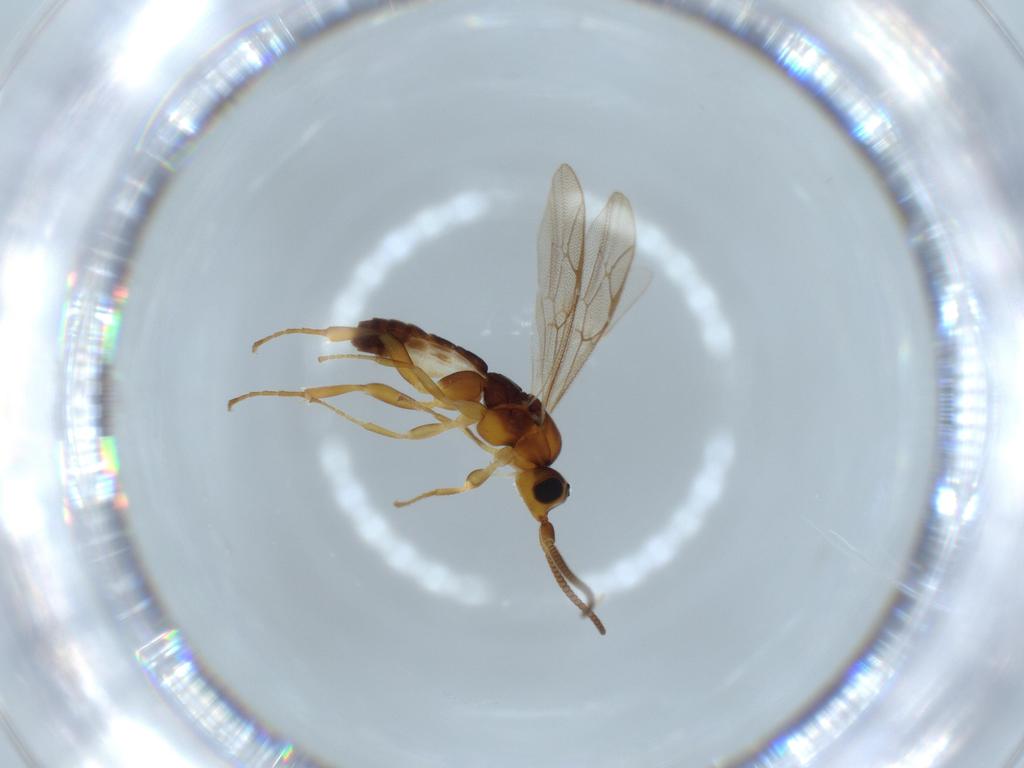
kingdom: Animalia
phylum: Arthropoda
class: Insecta
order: Hymenoptera
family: Ichneumonidae
